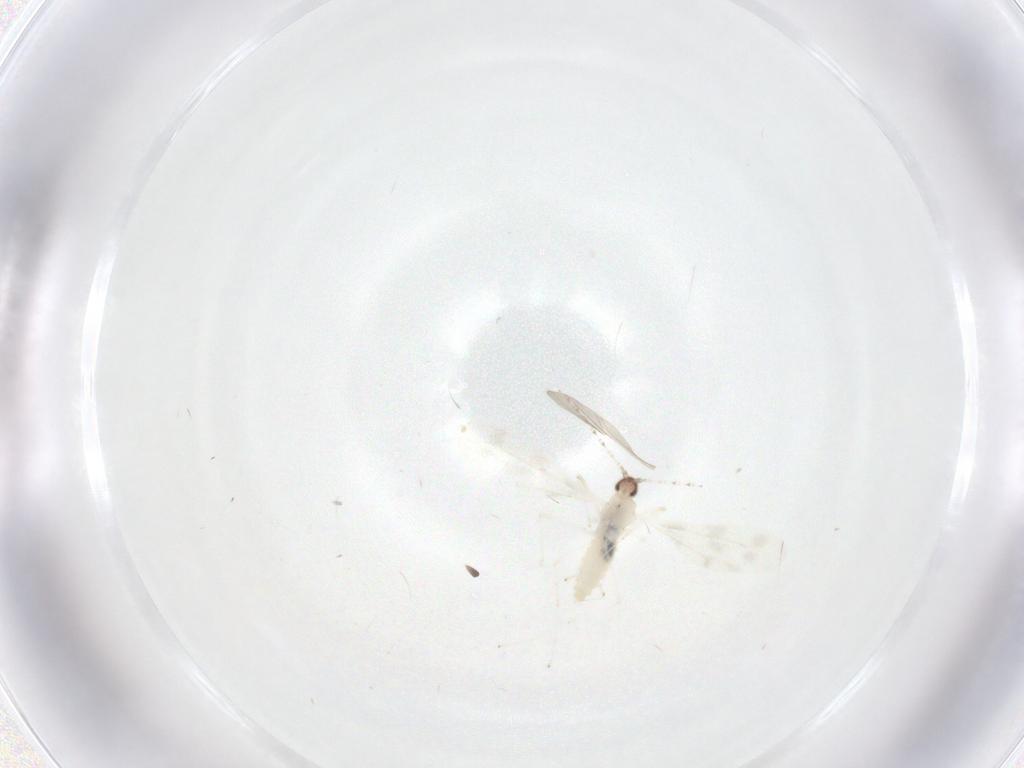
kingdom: Animalia
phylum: Arthropoda
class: Insecta
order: Diptera
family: Cecidomyiidae
